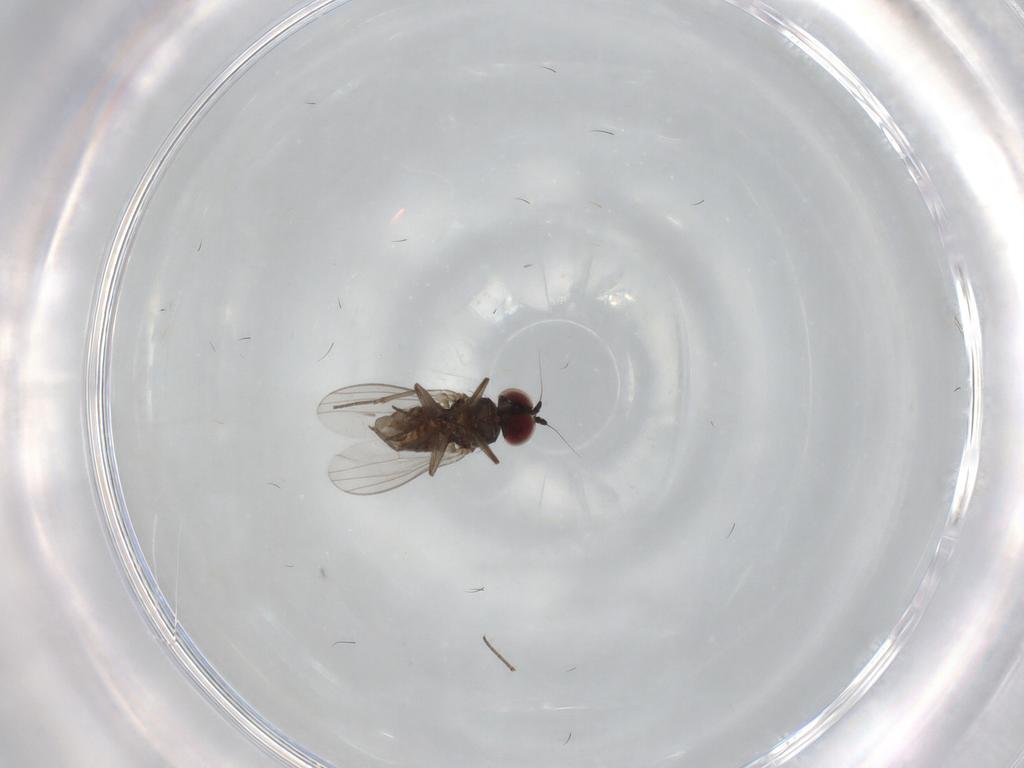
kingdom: Animalia
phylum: Arthropoda
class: Insecta
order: Diptera
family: Dolichopodidae
